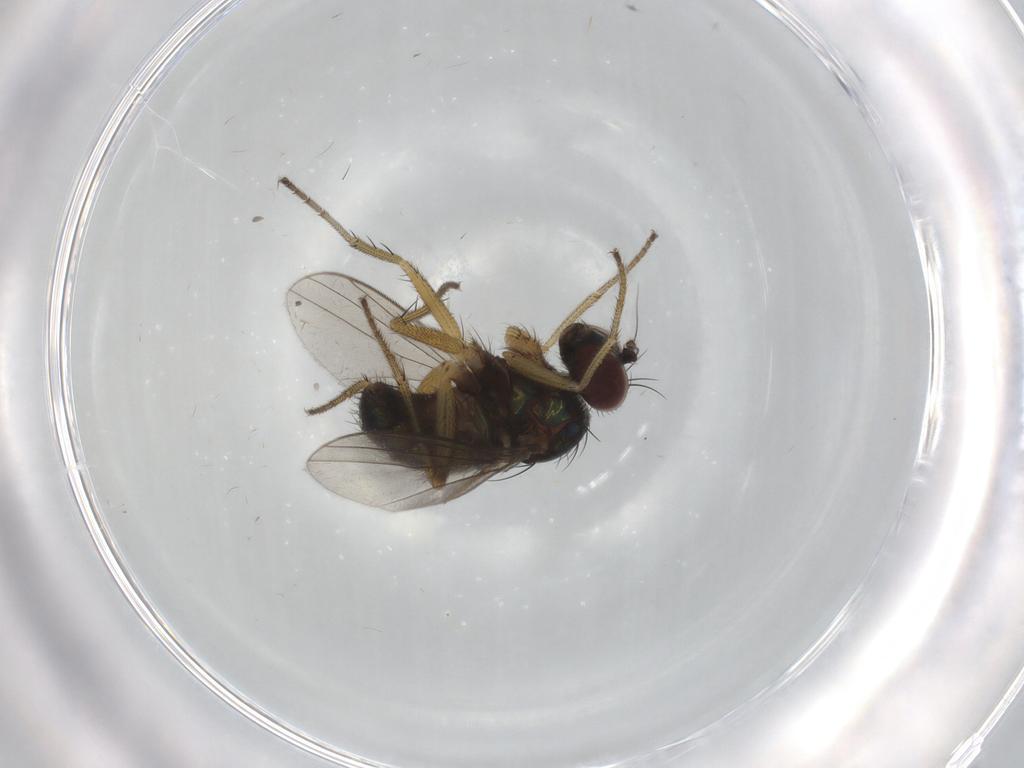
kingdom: Animalia
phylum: Arthropoda
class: Insecta
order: Diptera
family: Dolichopodidae
